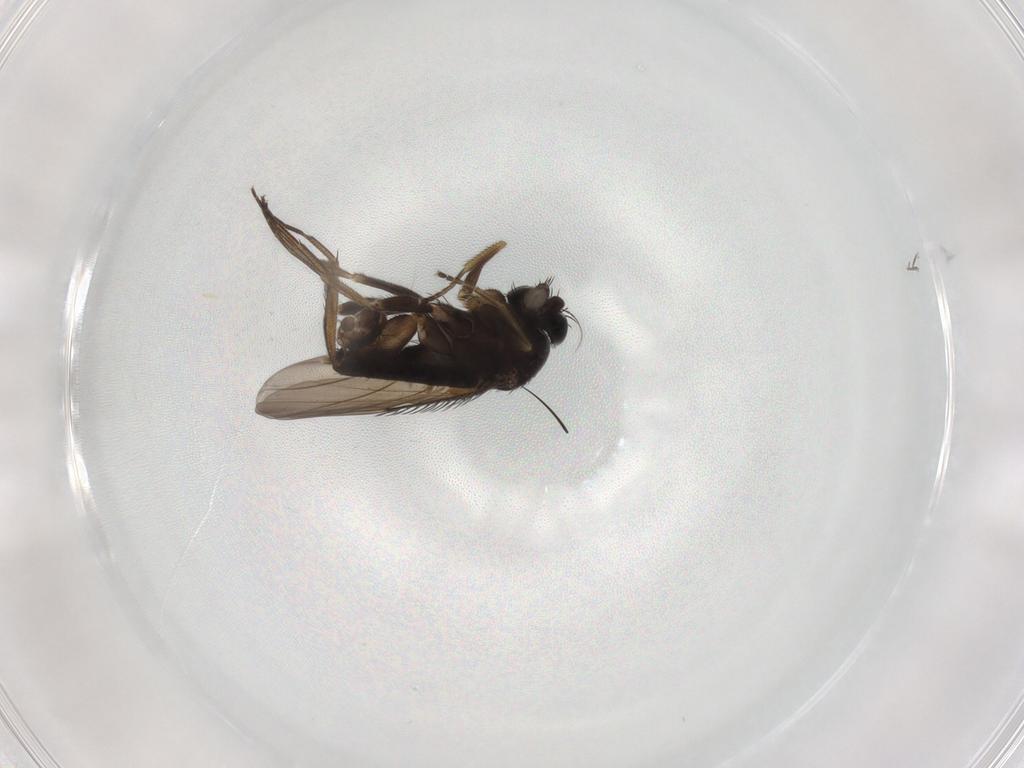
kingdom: Animalia
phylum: Arthropoda
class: Insecta
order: Diptera
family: Phoridae
